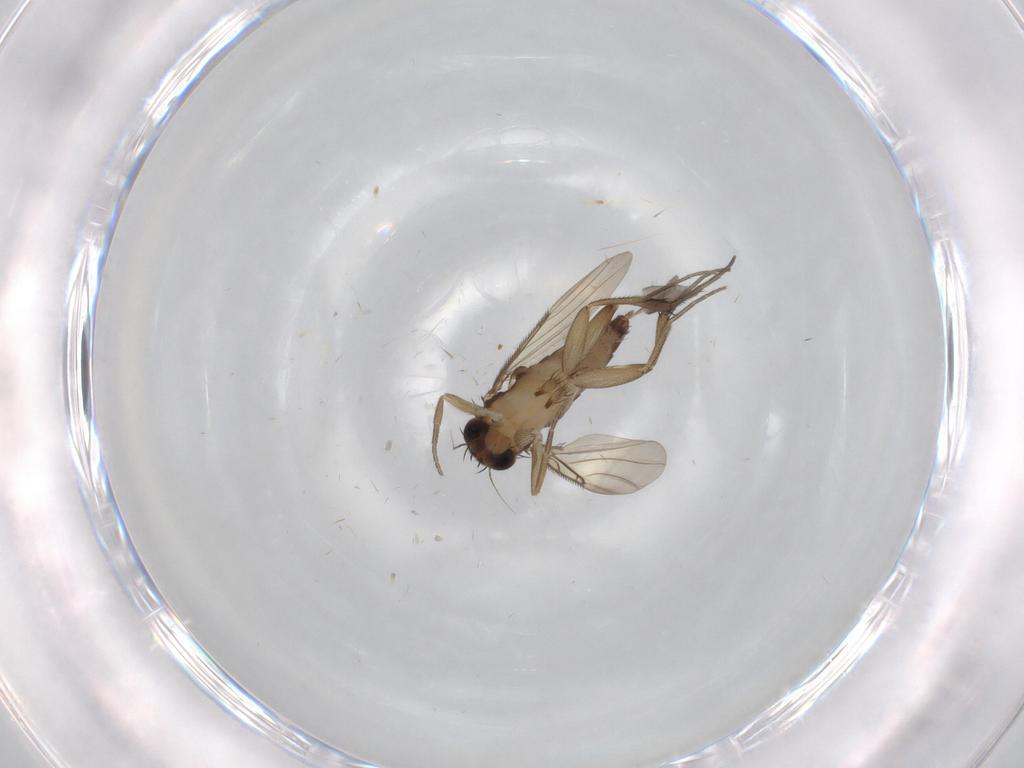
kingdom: Animalia
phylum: Arthropoda
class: Insecta
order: Diptera
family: Phoridae
